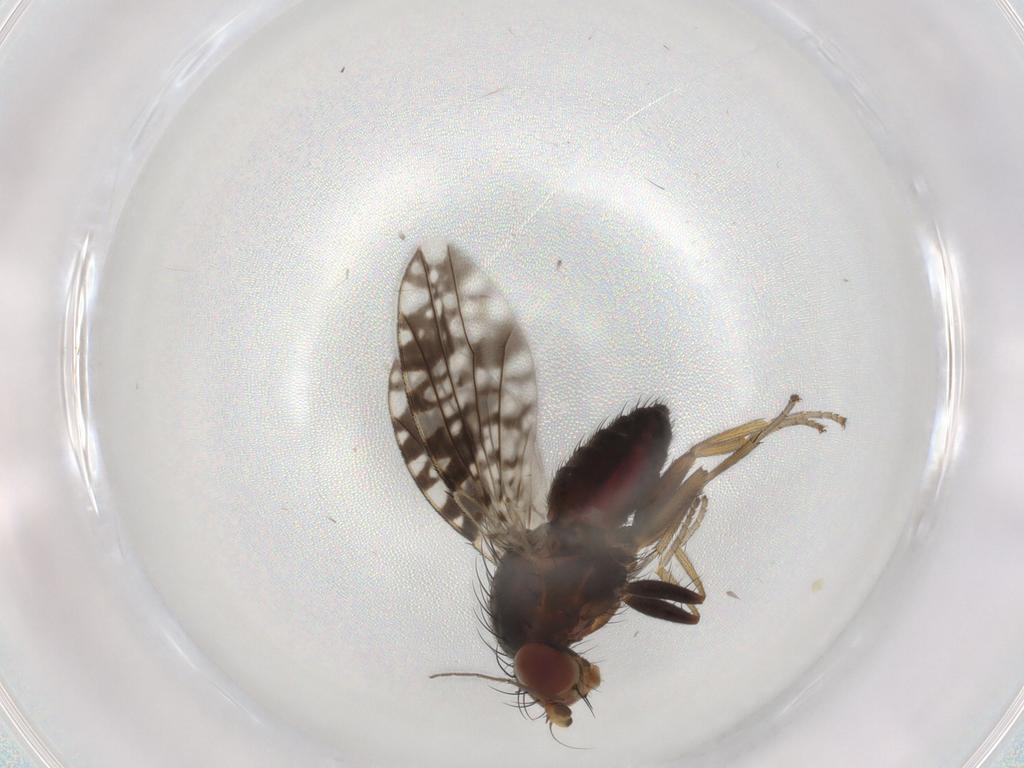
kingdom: Animalia
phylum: Arthropoda
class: Insecta
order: Diptera
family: Tephritidae
